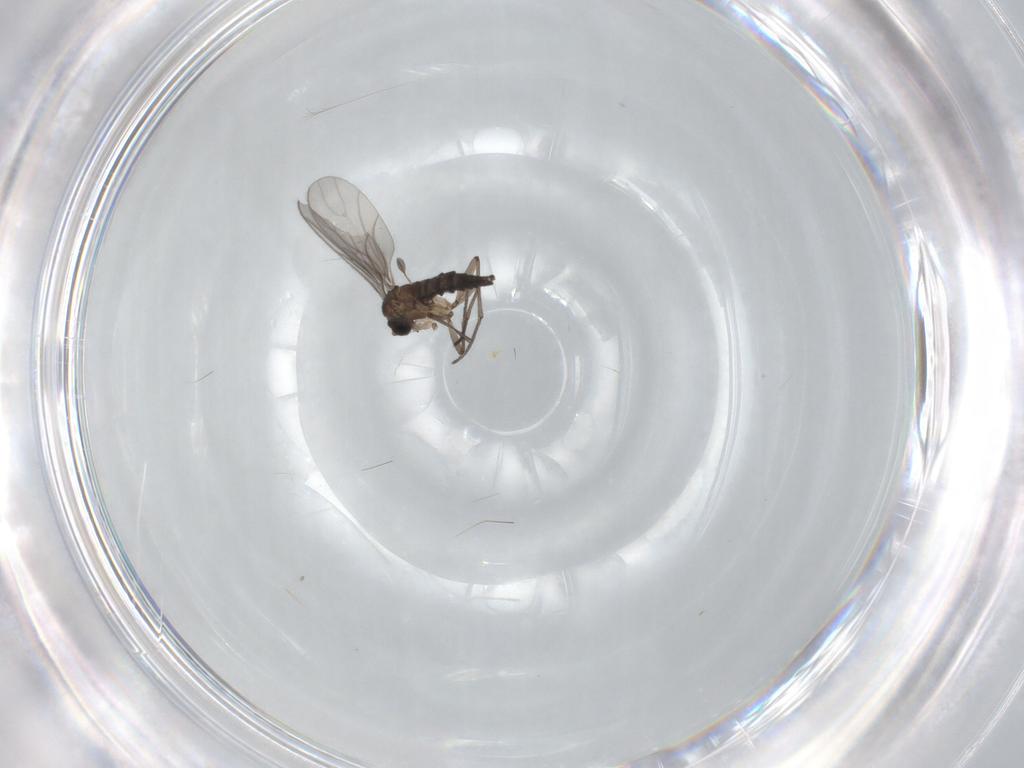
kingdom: Animalia
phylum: Arthropoda
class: Insecta
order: Diptera
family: Sciaridae
